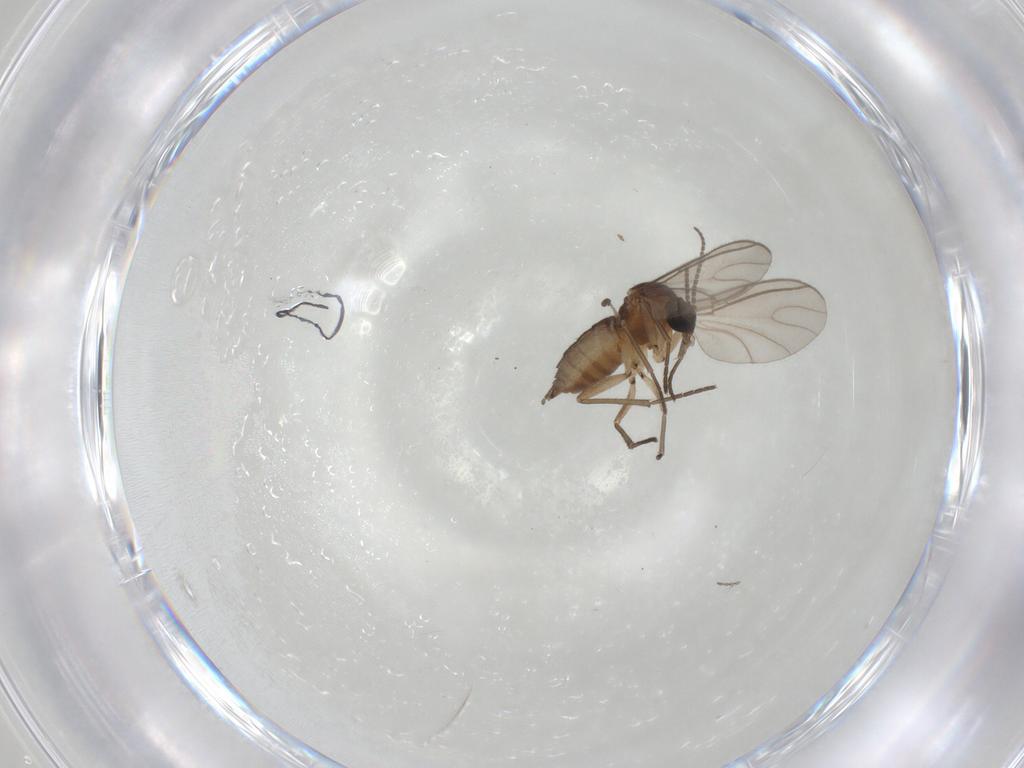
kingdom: Animalia
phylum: Arthropoda
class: Insecta
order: Diptera
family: Sciaridae
